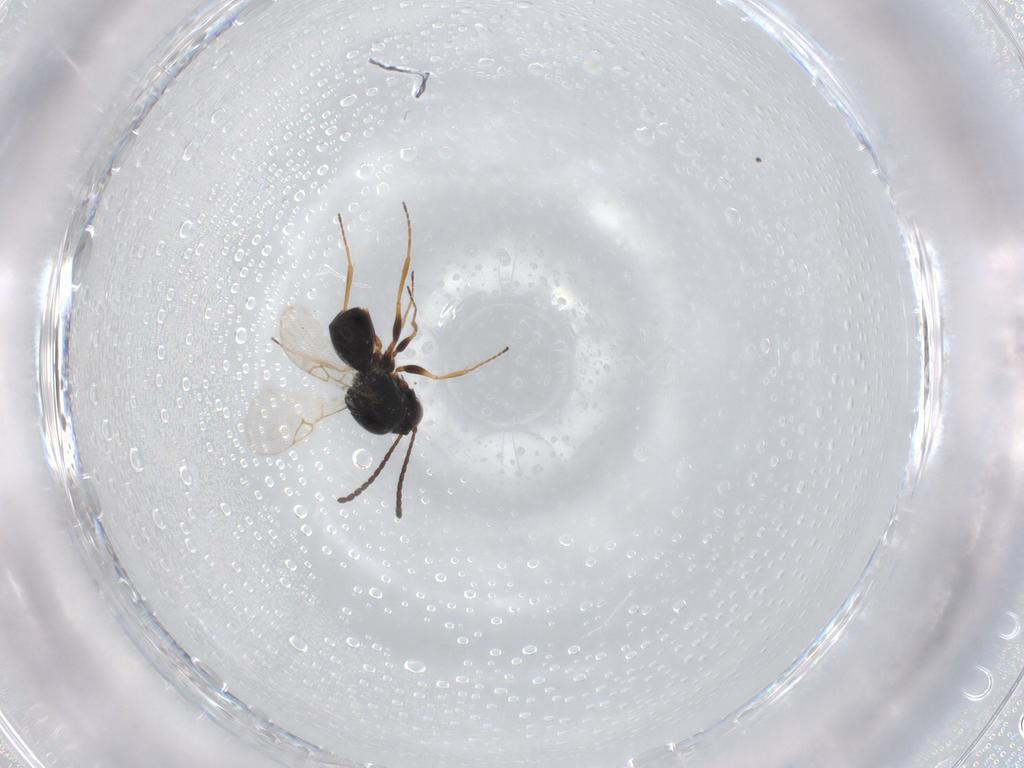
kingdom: Animalia
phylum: Arthropoda
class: Insecta
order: Hymenoptera
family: Figitidae
